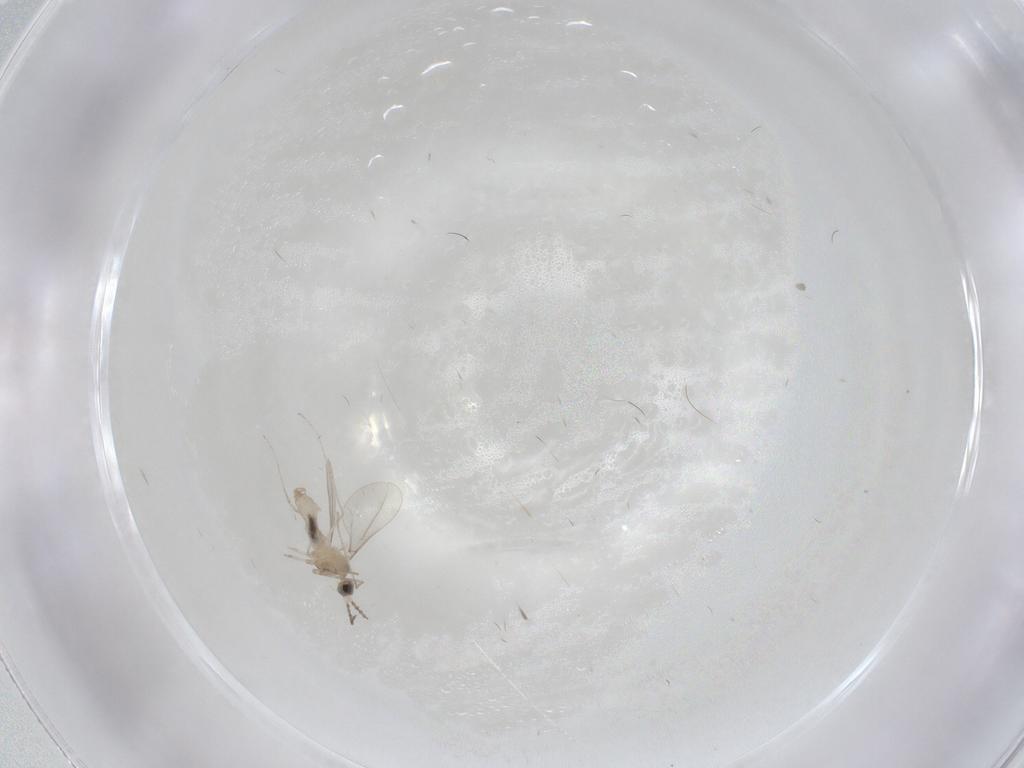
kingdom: Animalia
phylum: Arthropoda
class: Insecta
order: Diptera
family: Cecidomyiidae
